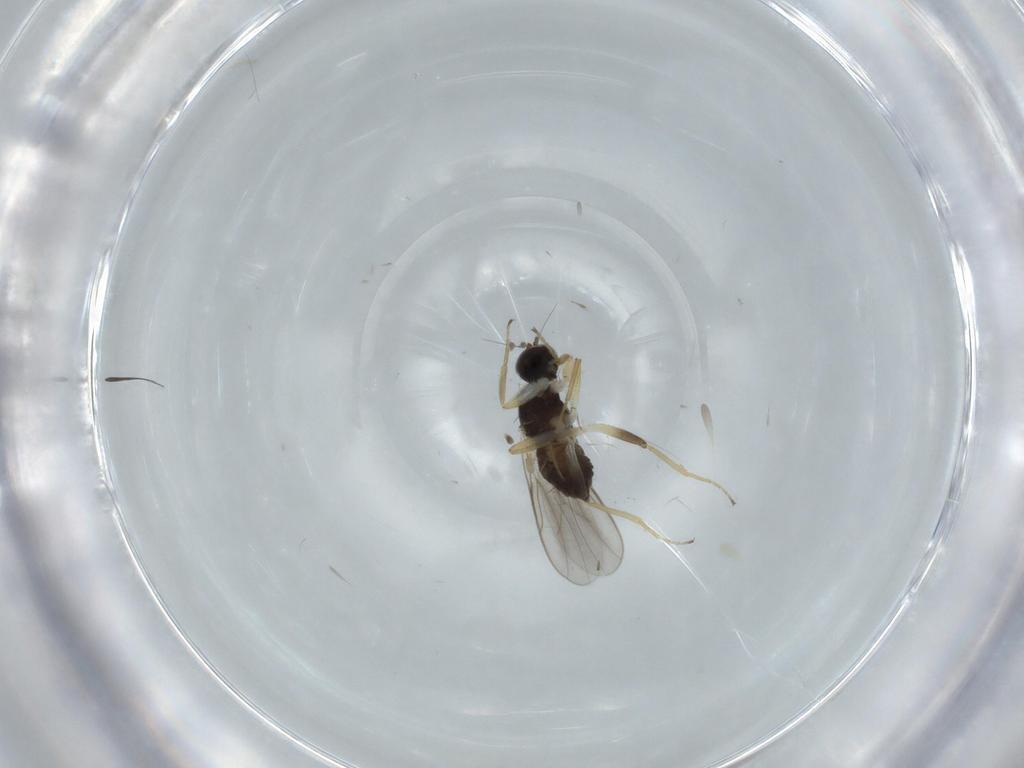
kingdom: Animalia
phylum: Arthropoda
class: Insecta
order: Diptera
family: Hybotidae
